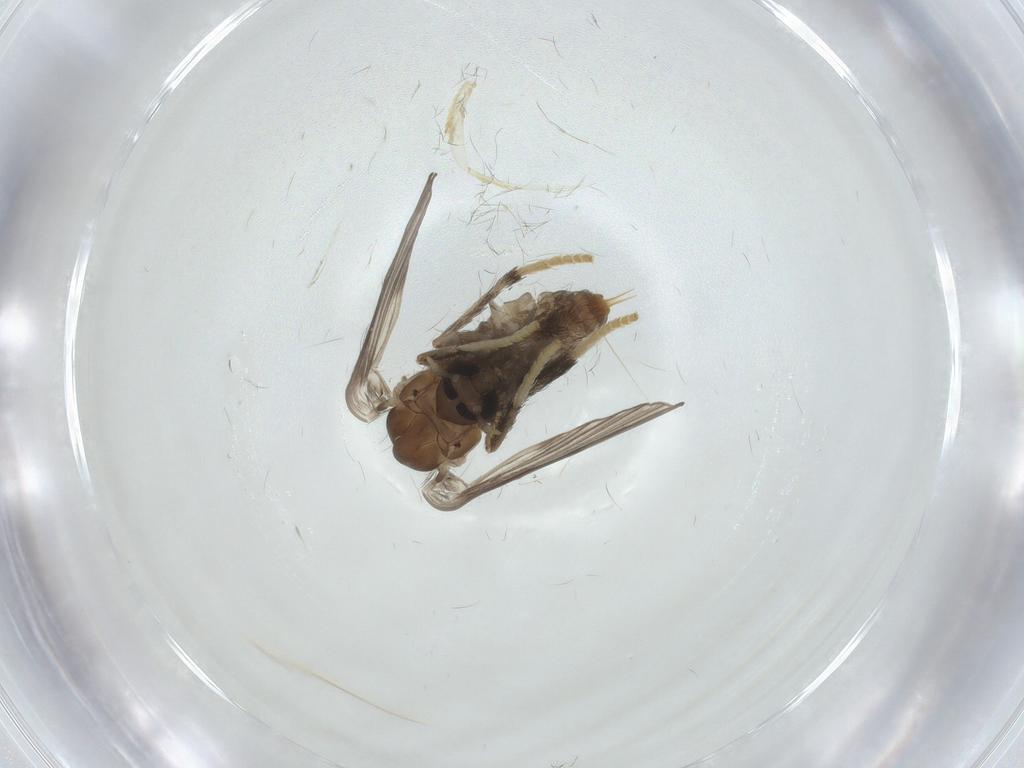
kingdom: Animalia
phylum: Arthropoda
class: Insecta
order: Diptera
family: Psychodidae
